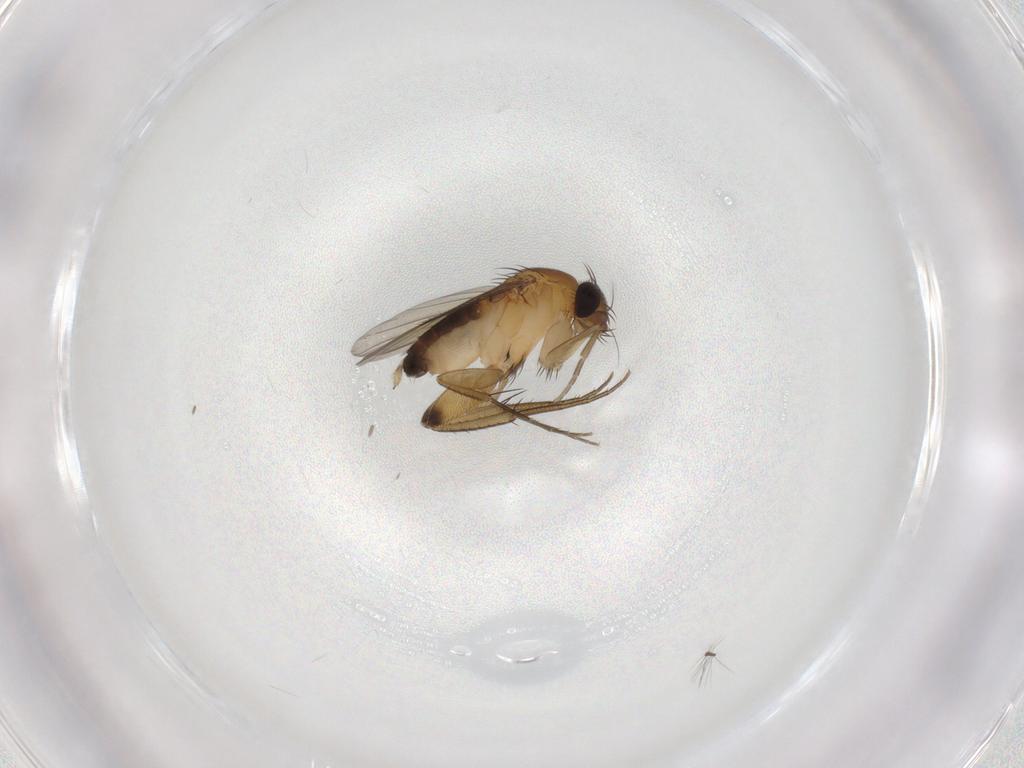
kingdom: Animalia
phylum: Arthropoda
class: Insecta
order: Diptera
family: Phoridae
